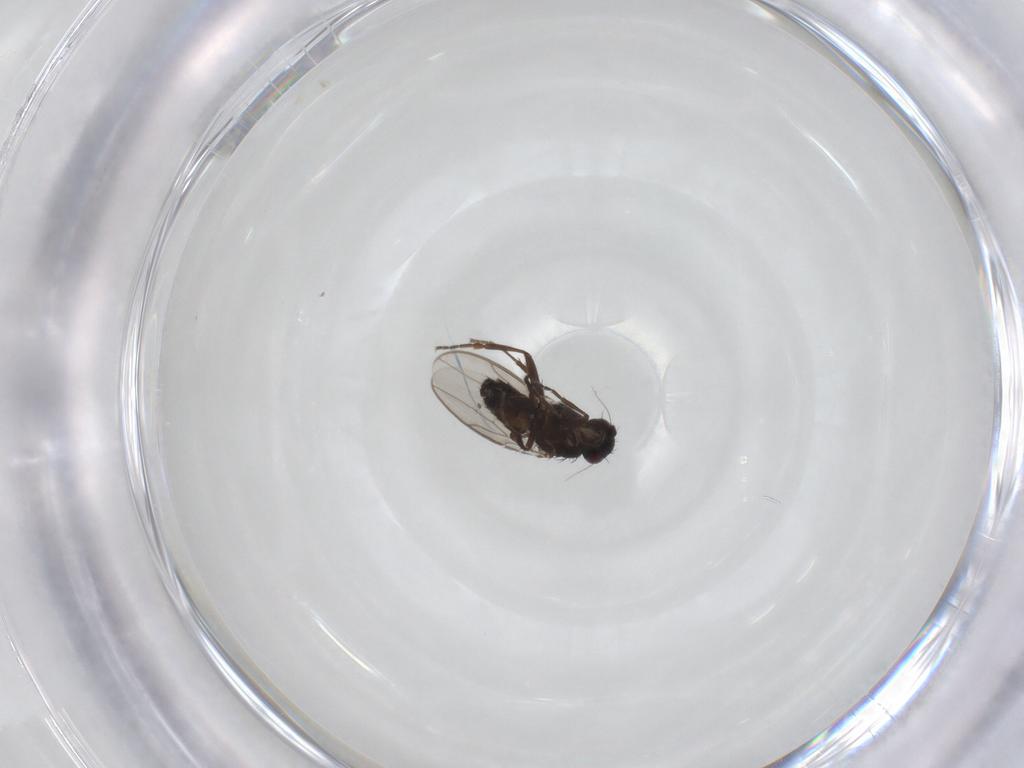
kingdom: Animalia
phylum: Arthropoda
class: Insecta
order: Diptera
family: Sphaeroceridae
